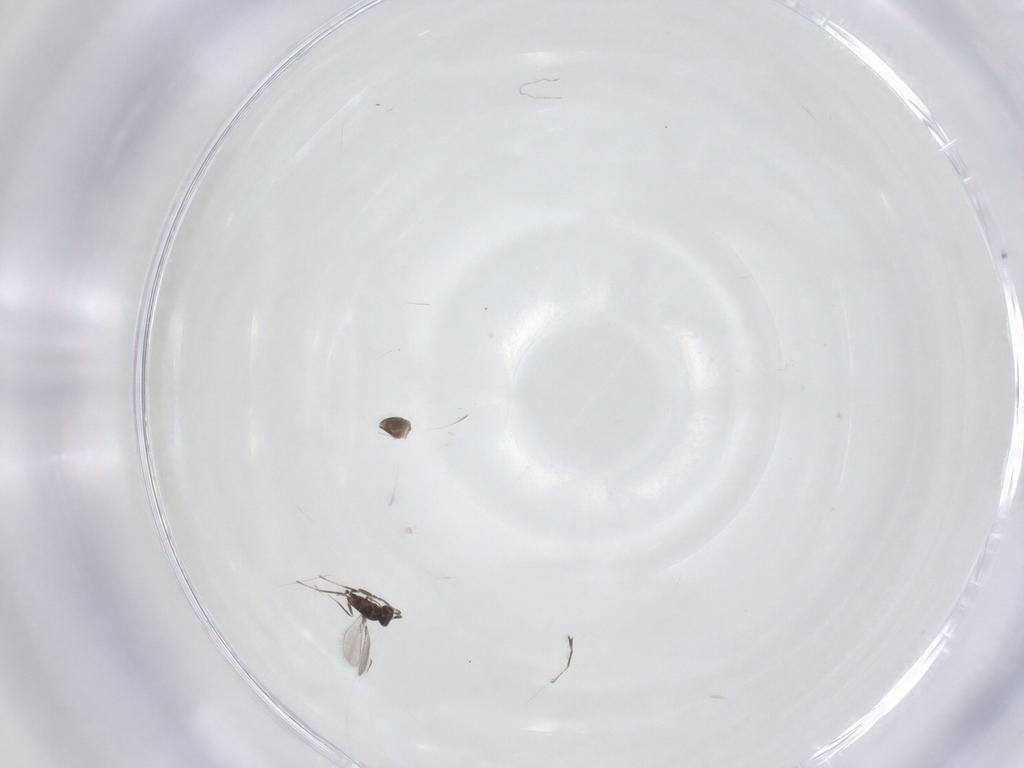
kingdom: Animalia
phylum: Arthropoda
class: Insecta
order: Hymenoptera
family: Mymaridae
